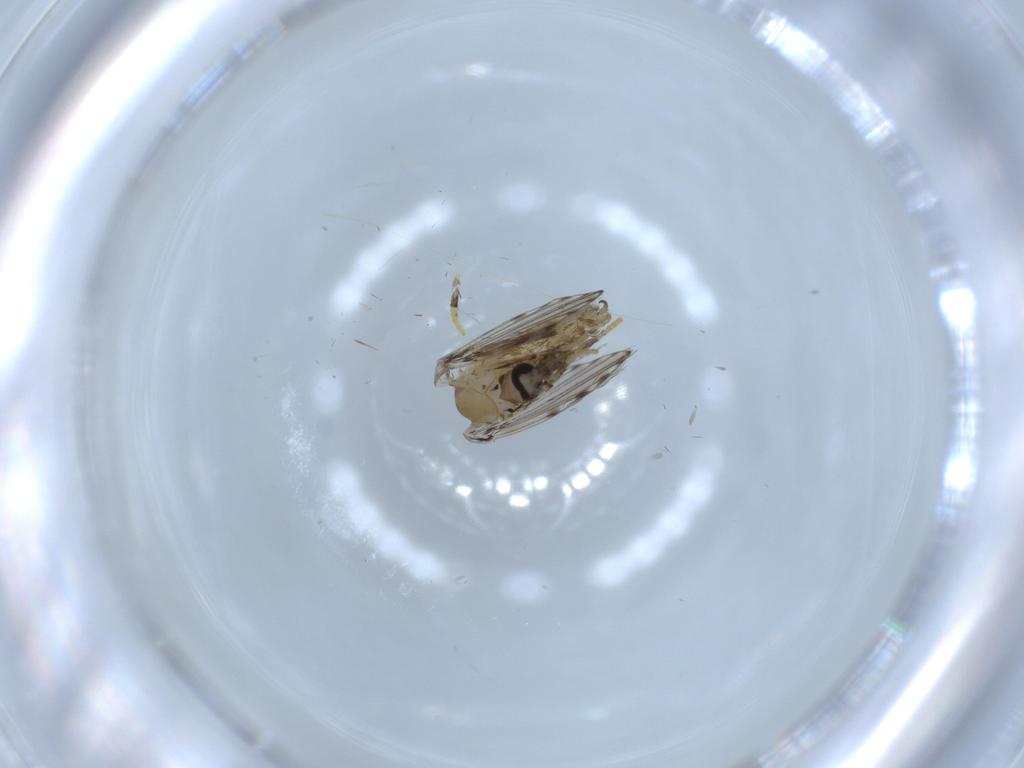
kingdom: Animalia
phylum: Arthropoda
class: Insecta
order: Diptera
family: Psychodidae
